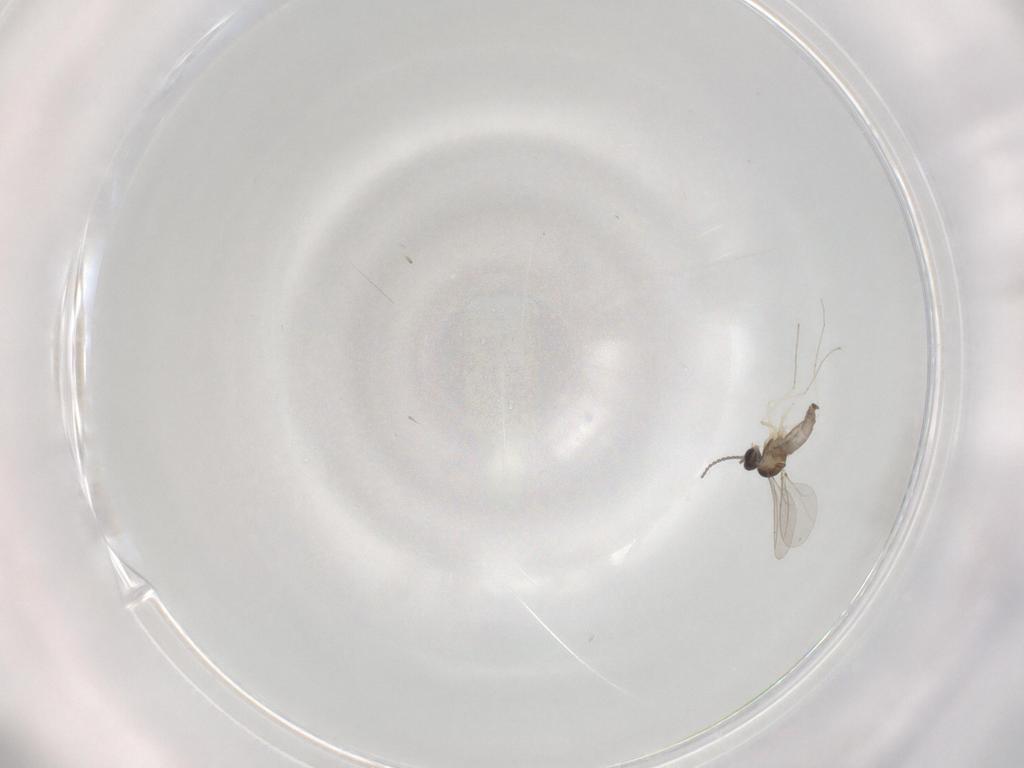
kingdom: Animalia
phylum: Arthropoda
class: Insecta
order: Diptera
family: Cecidomyiidae
